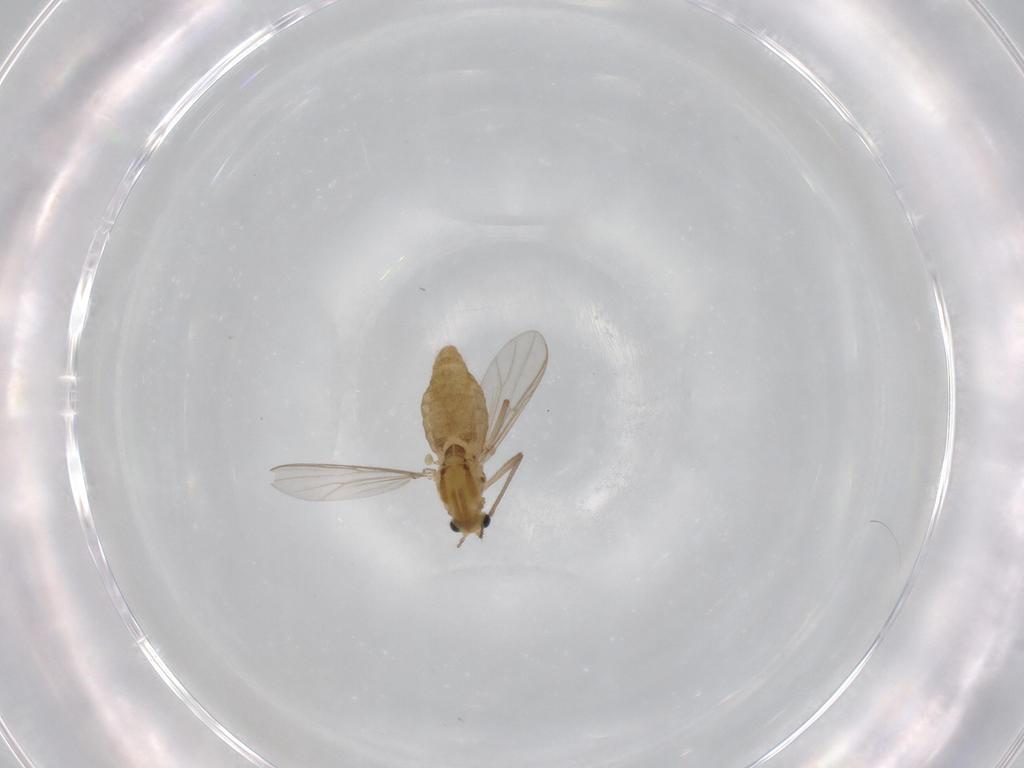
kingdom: Animalia
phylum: Arthropoda
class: Insecta
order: Diptera
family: Chironomidae
